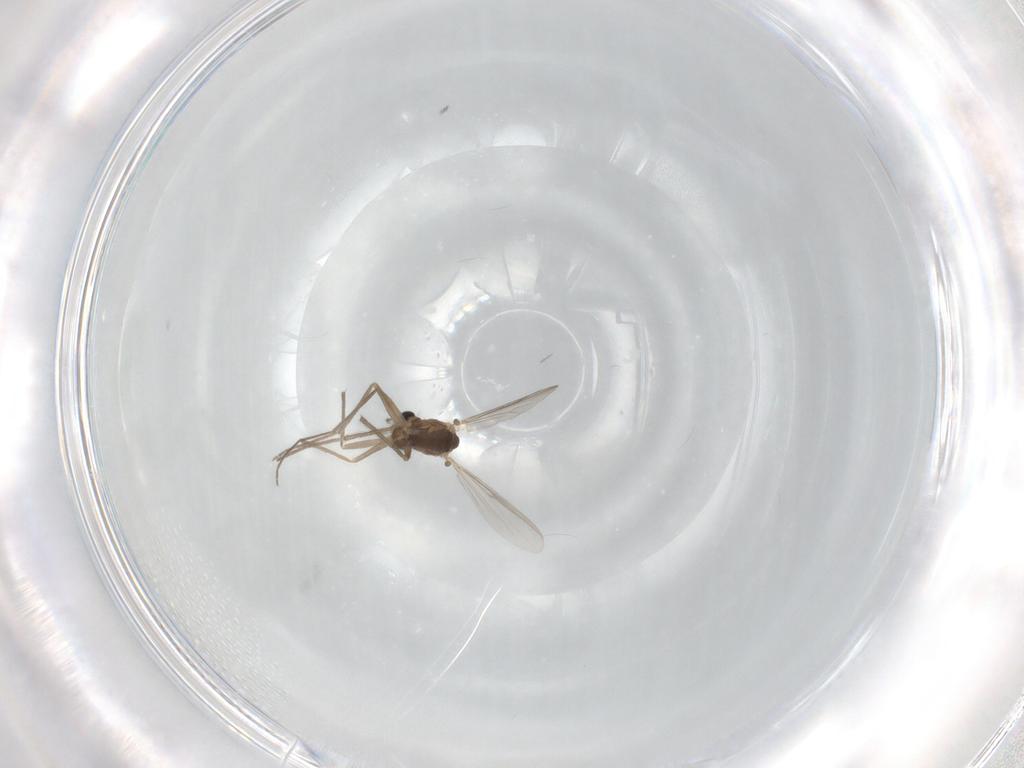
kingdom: Animalia
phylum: Arthropoda
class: Insecta
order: Diptera
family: Chironomidae
